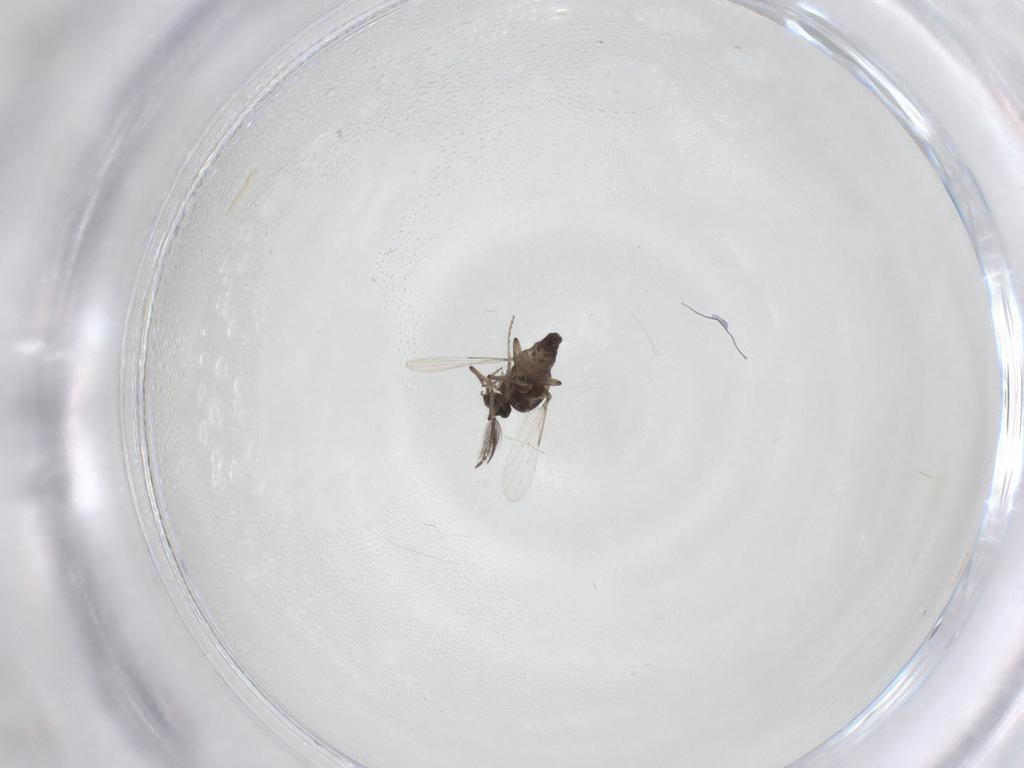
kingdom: Animalia
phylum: Arthropoda
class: Insecta
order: Diptera
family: Ceratopogonidae
